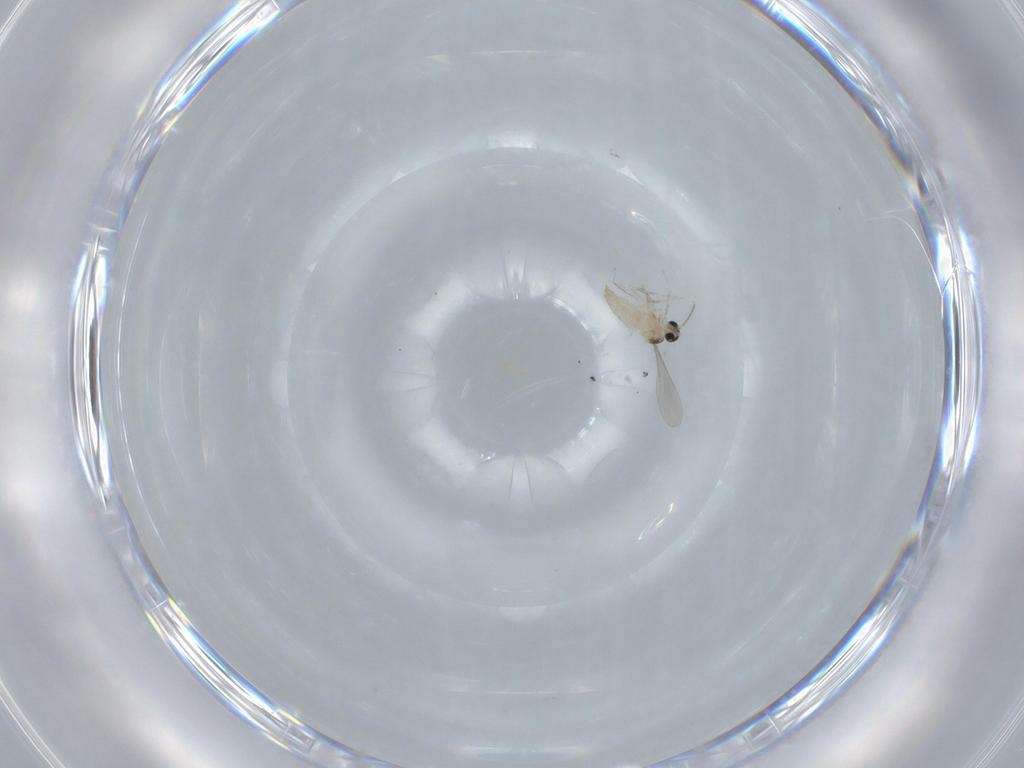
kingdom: Animalia
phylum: Arthropoda
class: Insecta
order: Diptera
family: Cecidomyiidae
